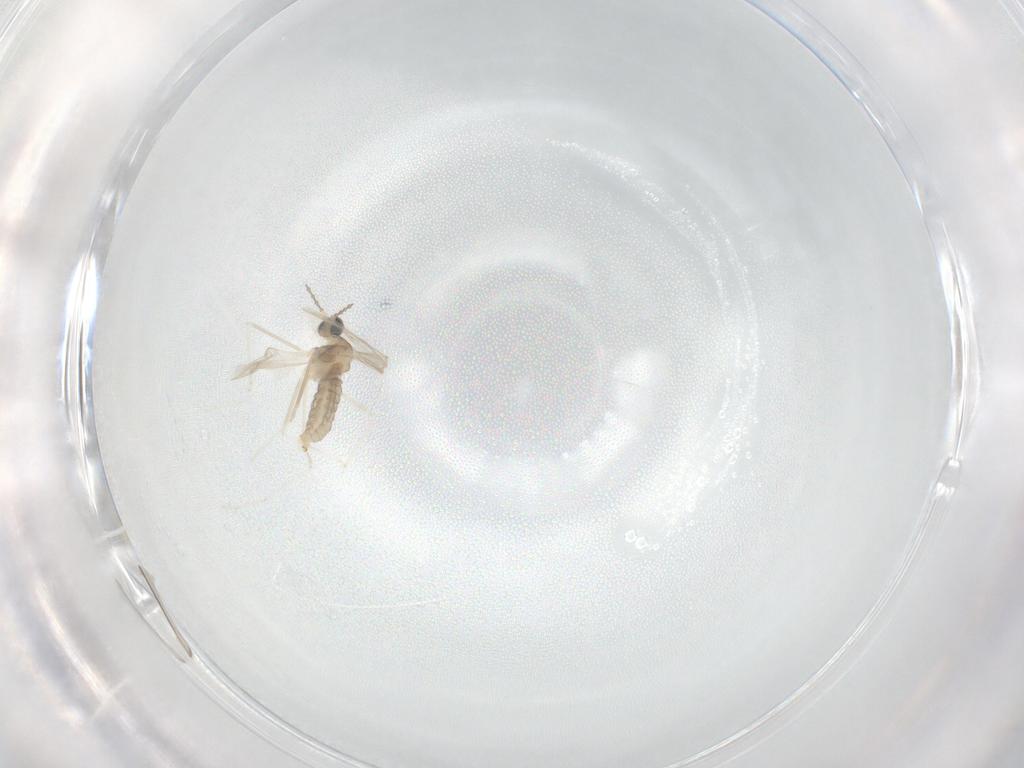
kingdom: Animalia
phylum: Arthropoda
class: Insecta
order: Diptera
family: Cecidomyiidae
